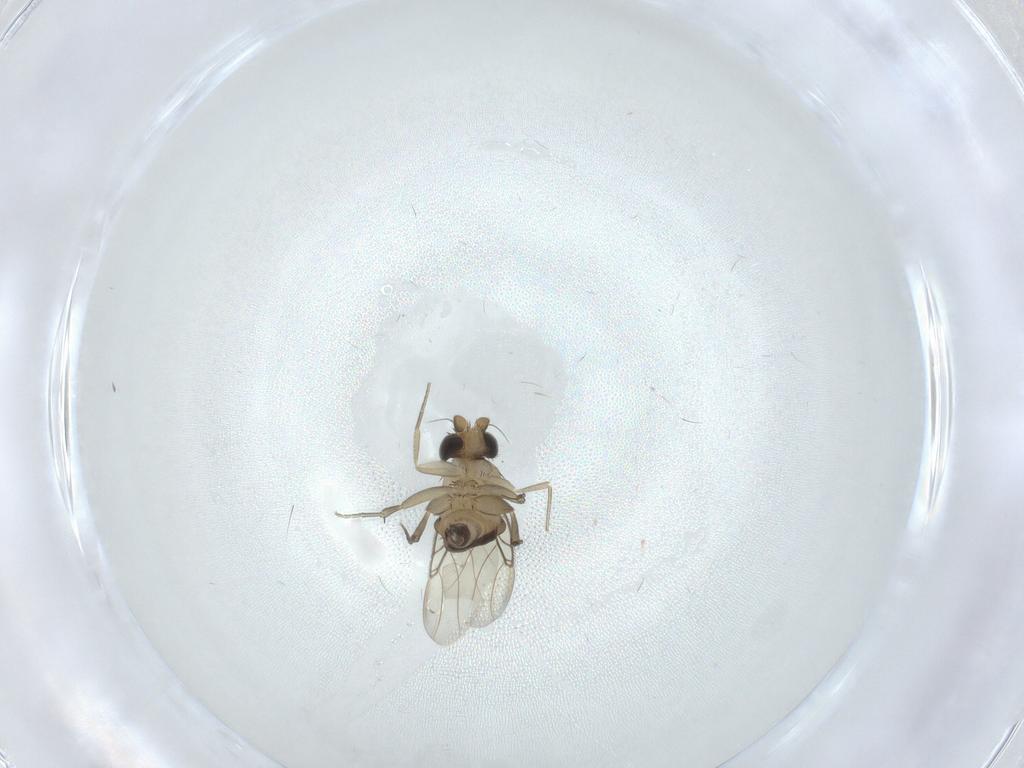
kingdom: Animalia
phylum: Arthropoda
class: Insecta
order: Diptera
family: Phoridae
